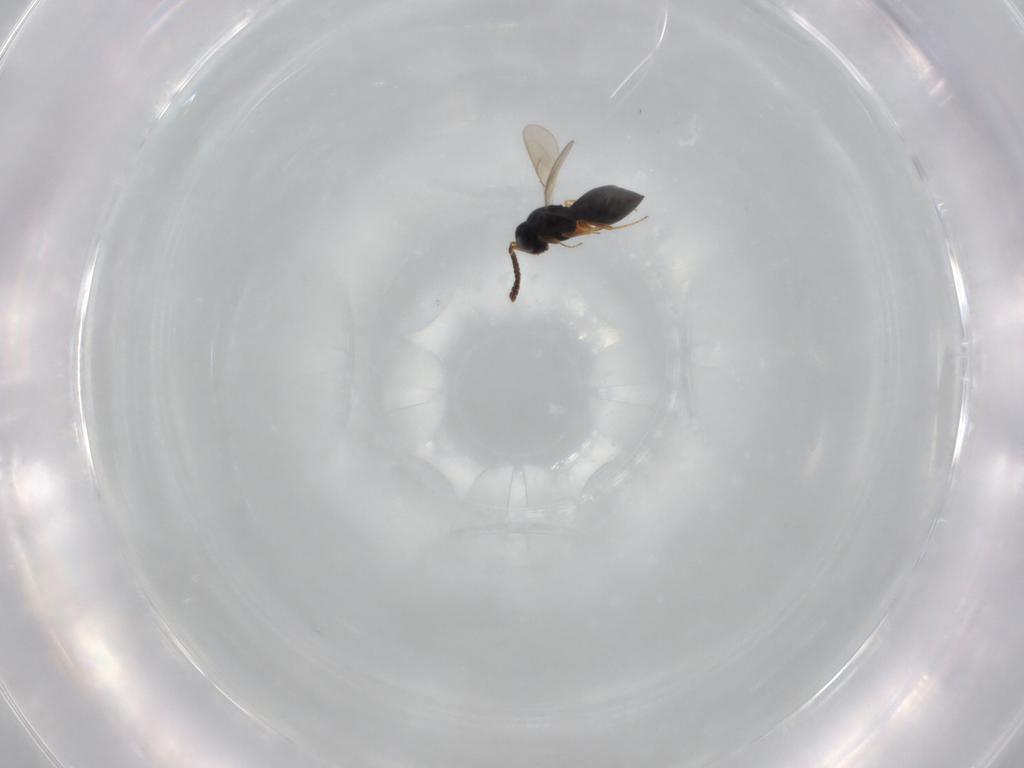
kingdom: Animalia
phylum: Arthropoda
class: Insecta
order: Hymenoptera
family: Scelionidae
